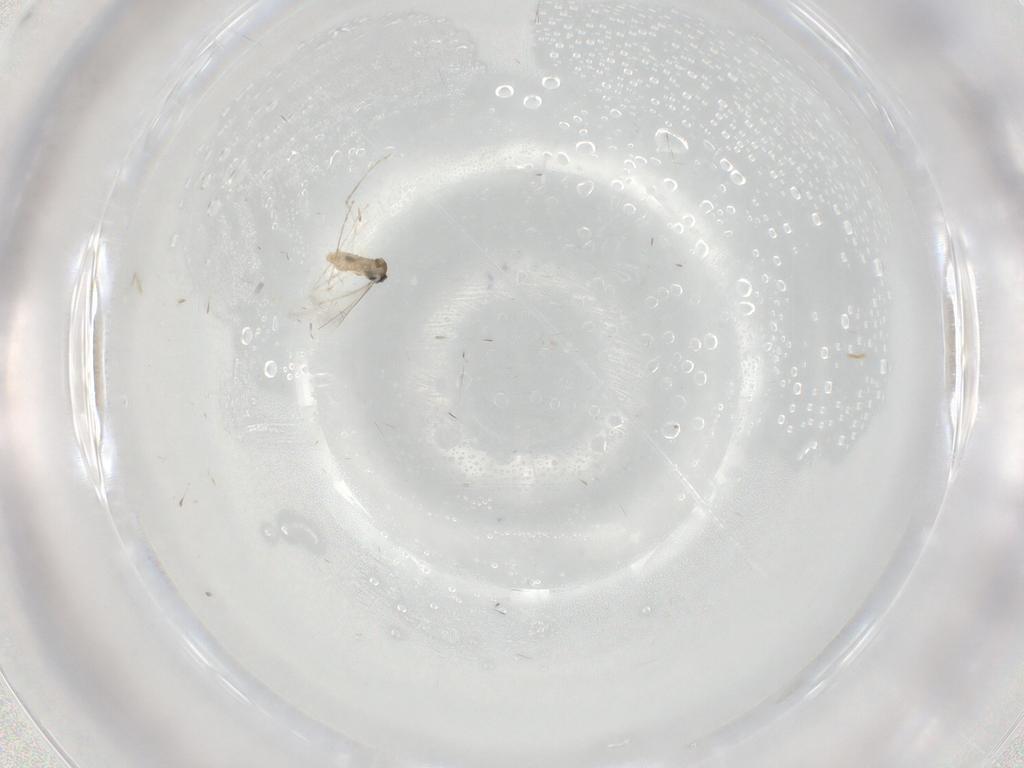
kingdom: Animalia
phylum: Arthropoda
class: Insecta
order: Diptera
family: Cecidomyiidae
